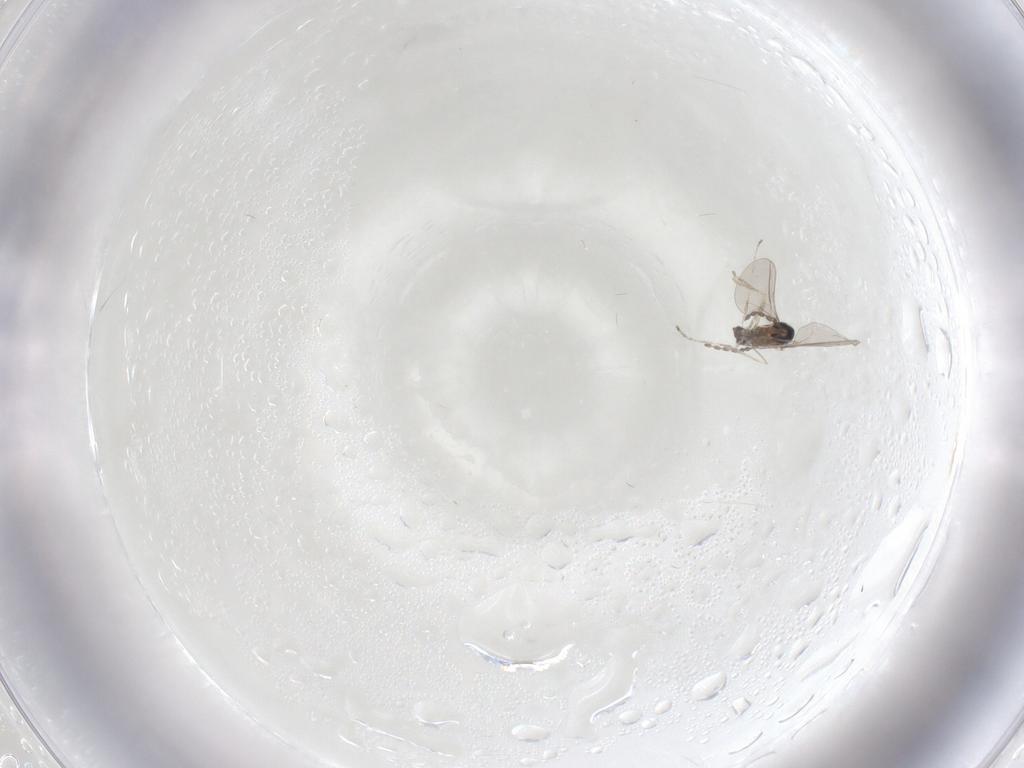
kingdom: Animalia
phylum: Arthropoda
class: Insecta
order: Diptera
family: Cecidomyiidae
